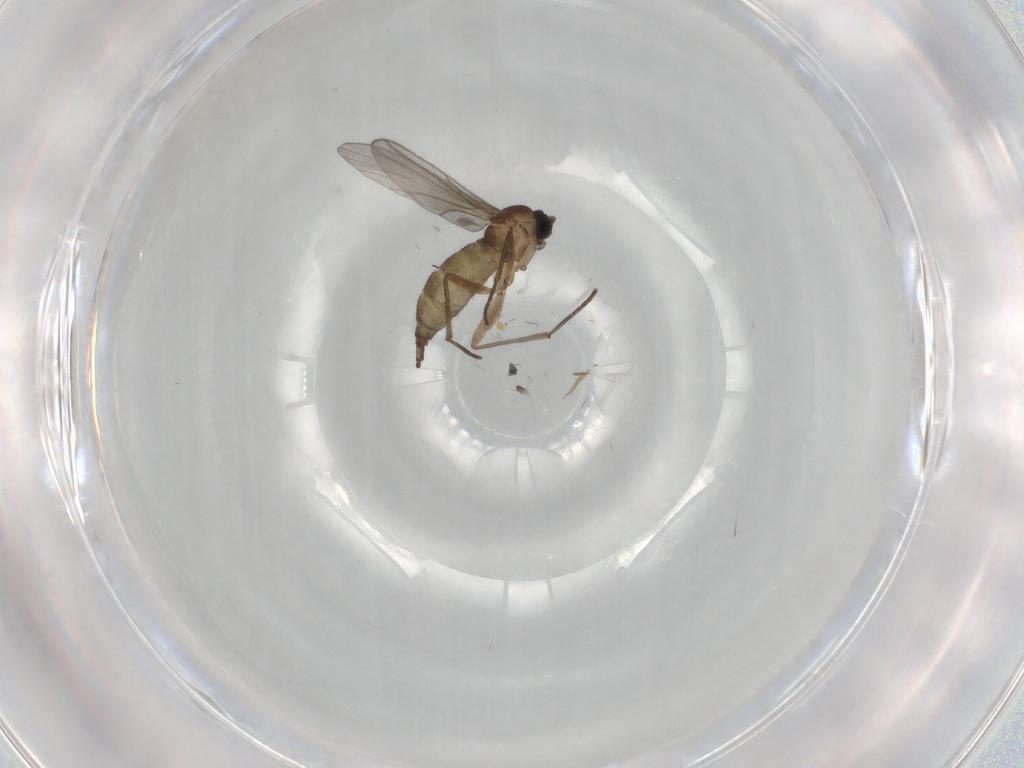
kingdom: Animalia
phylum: Arthropoda
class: Insecta
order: Diptera
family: Sciaridae
